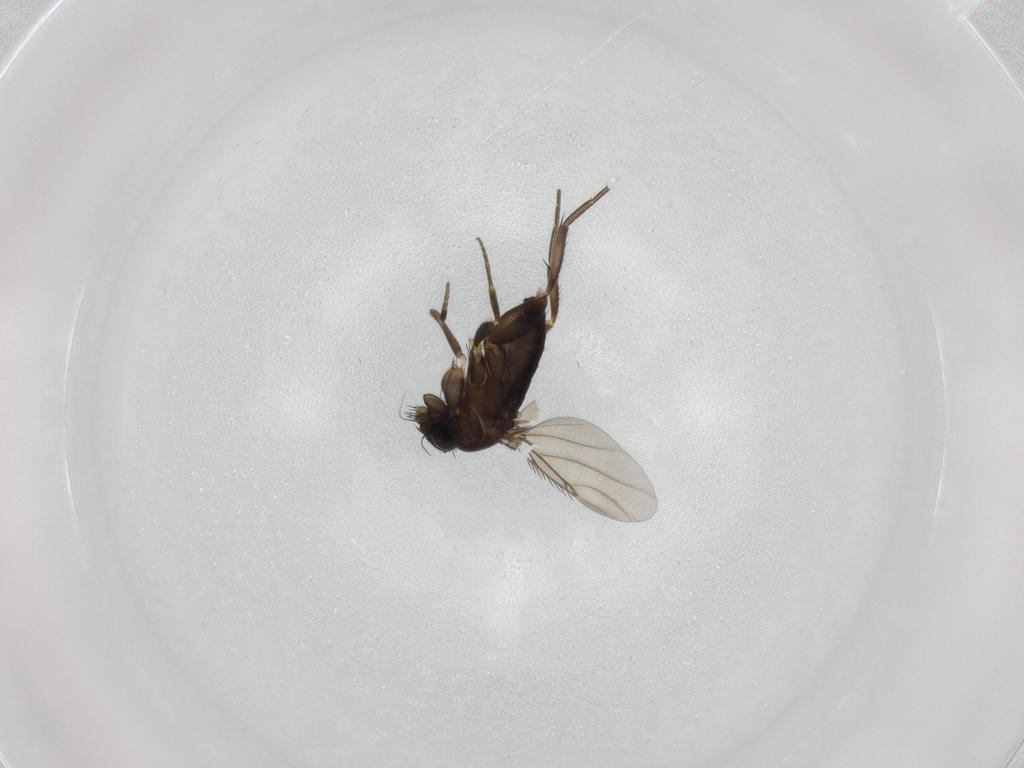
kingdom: Animalia
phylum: Arthropoda
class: Insecta
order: Diptera
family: Phoridae
